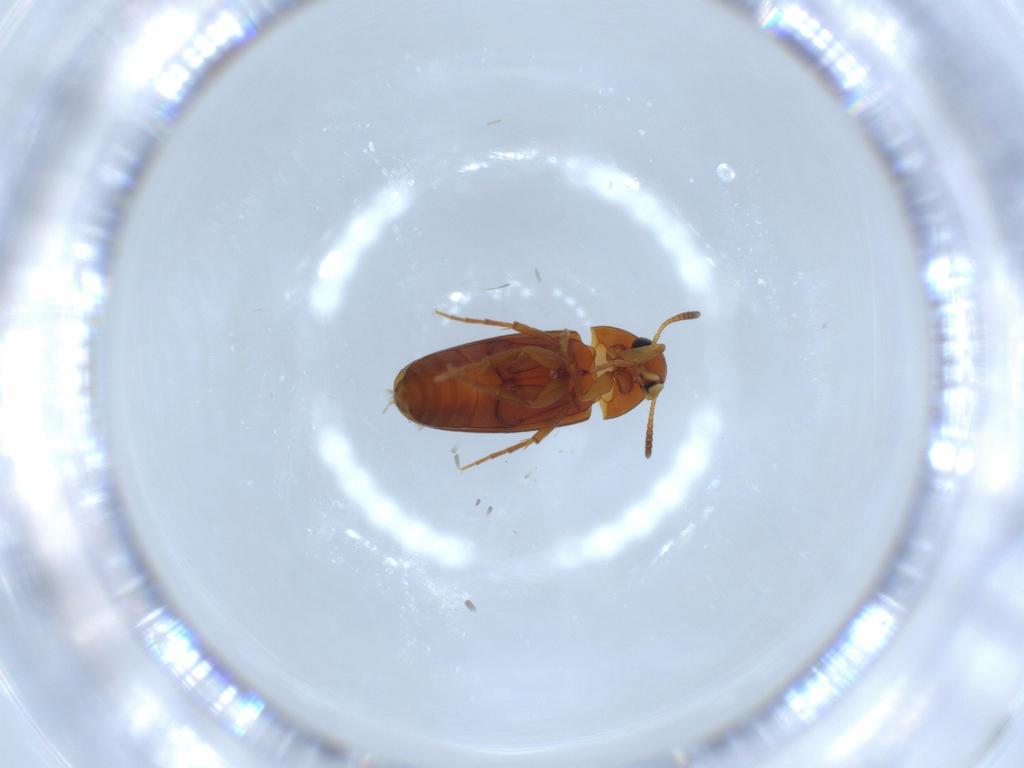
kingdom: Animalia
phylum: Arthropoda
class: Insecta
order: Coleoptera
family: Scraptiidae
